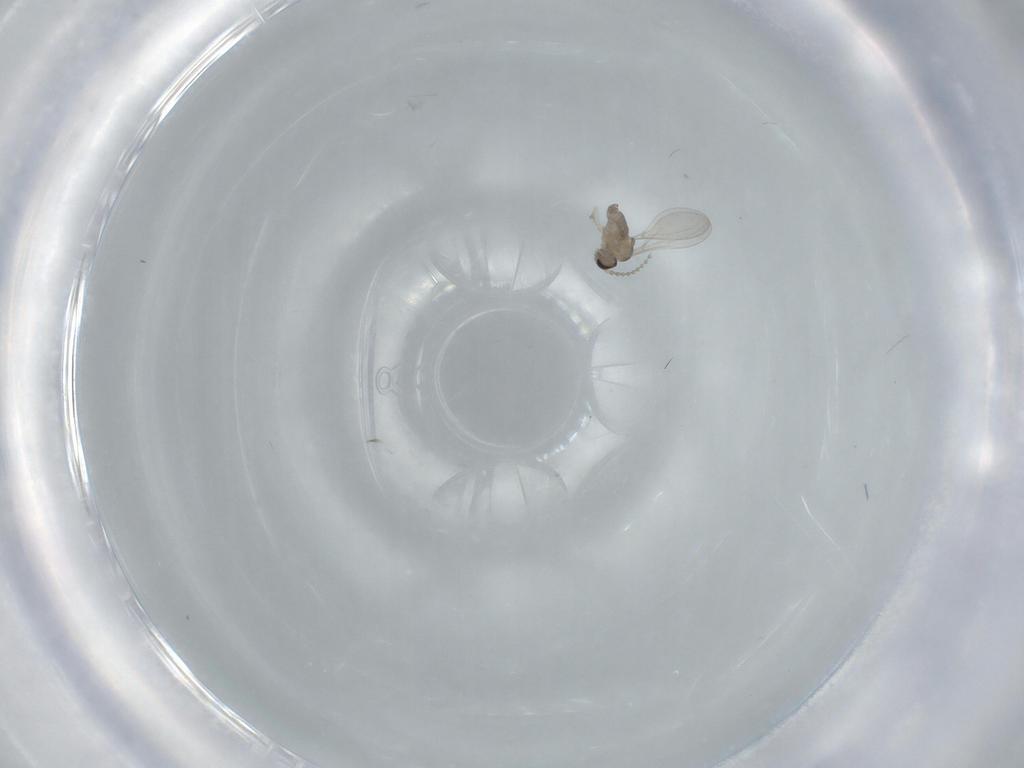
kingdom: Animalia
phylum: Arthropoda
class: Insecta
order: Diptera
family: Cecidomyiidae
